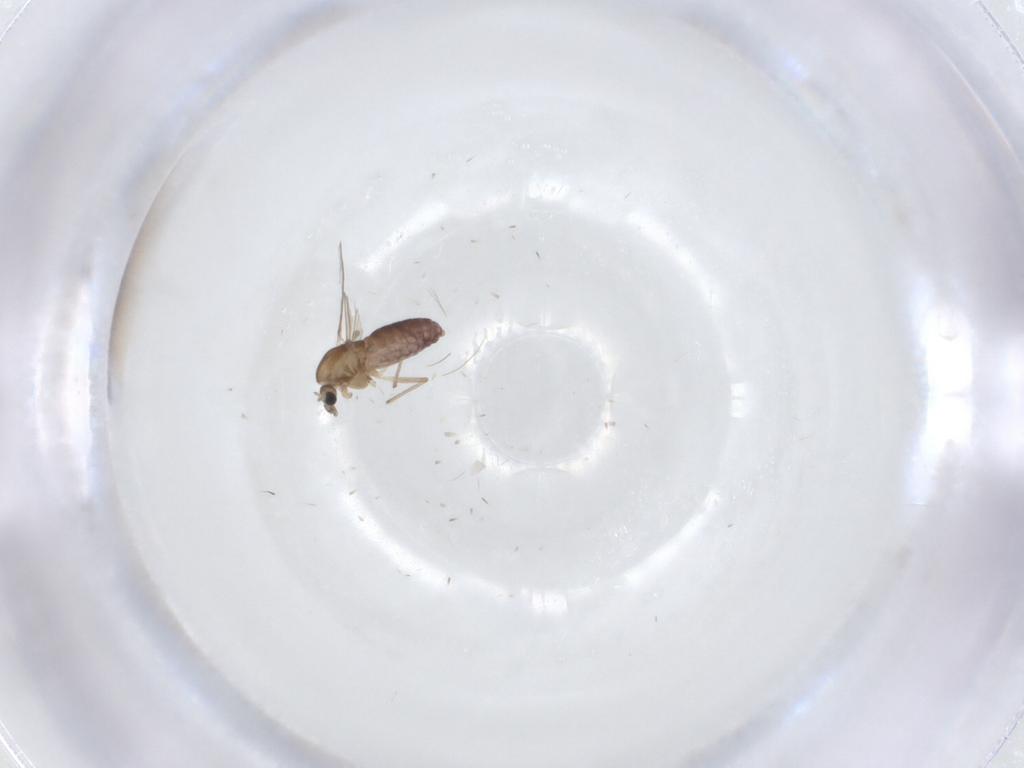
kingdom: Animalia
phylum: Arthropoda
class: Insecta
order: Diptera
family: Chironomidae
